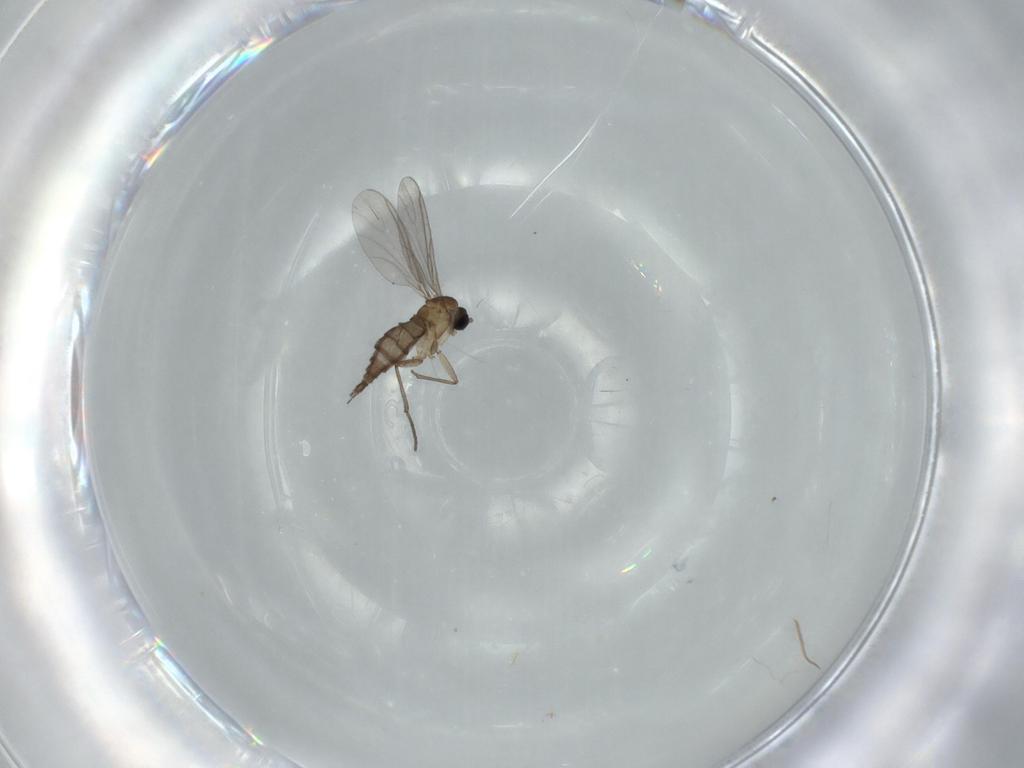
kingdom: Animalia
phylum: Arthropoda
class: Insecta
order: Diptera
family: Sciaridae
